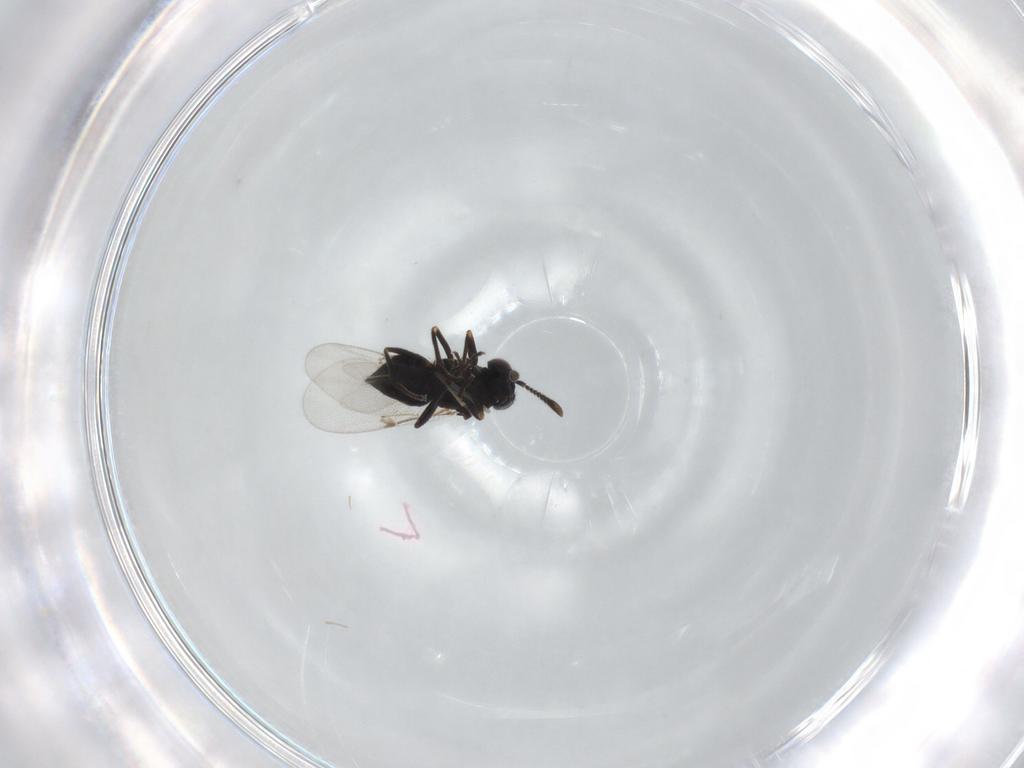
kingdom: Animalia
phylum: Arthropoda
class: Insecta
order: Hymenoptera
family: Encyrtidae
